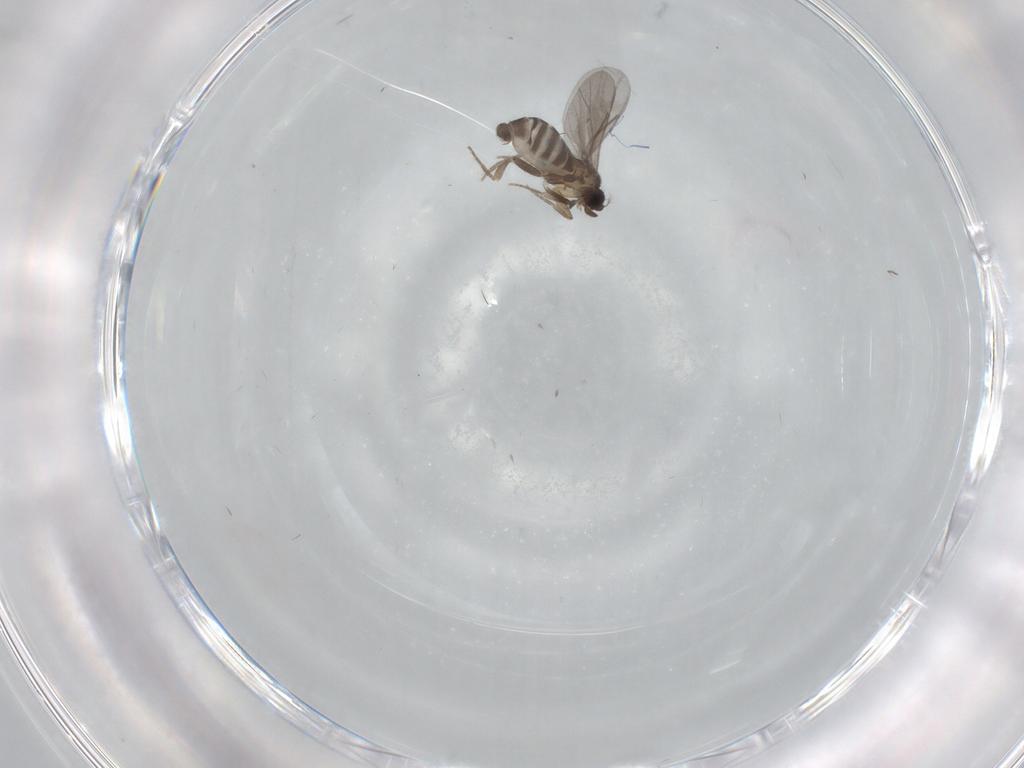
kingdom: Animalia
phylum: Arthropoda
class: Insecta
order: Diptera
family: Chironomidae
